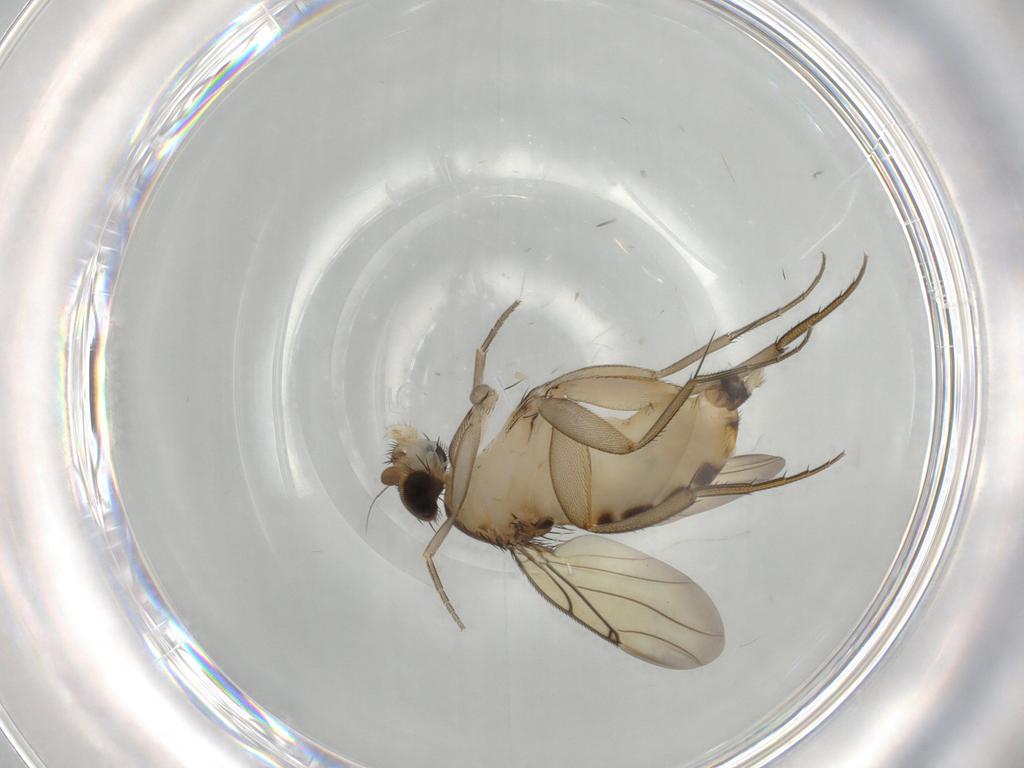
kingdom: Animalia
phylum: Arthropoda
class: Insecta
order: Diptera
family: Phoridae
